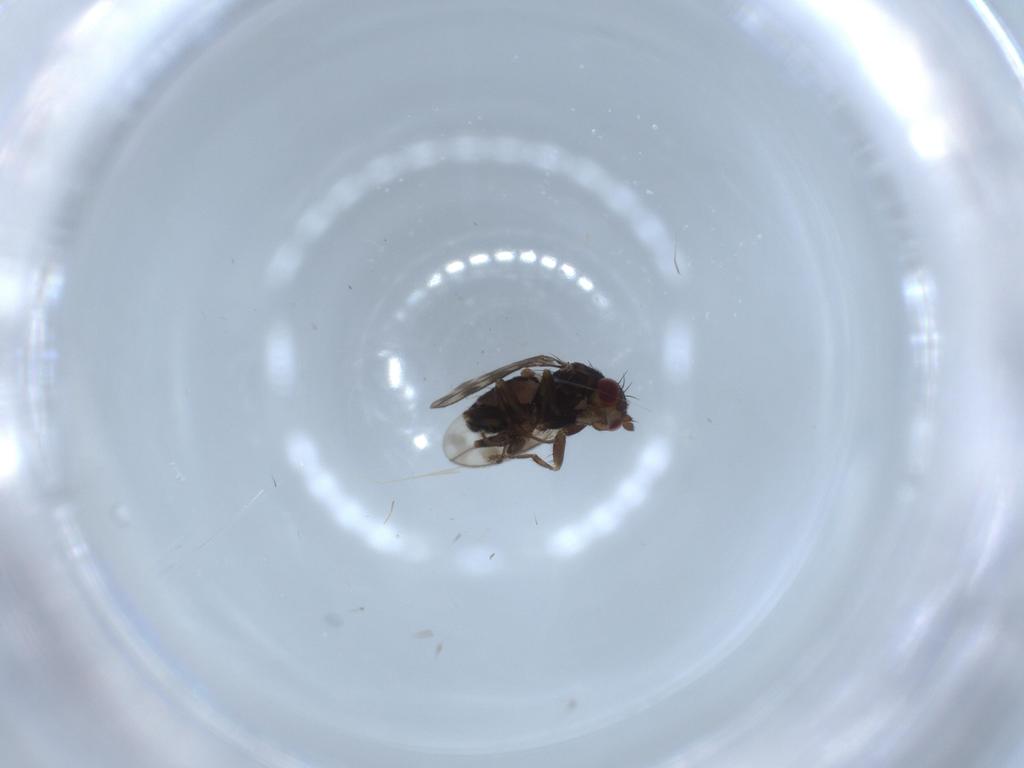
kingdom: Animalia
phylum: Arthropoda
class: Insecta
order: Diptera
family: Sphaeroceridae
